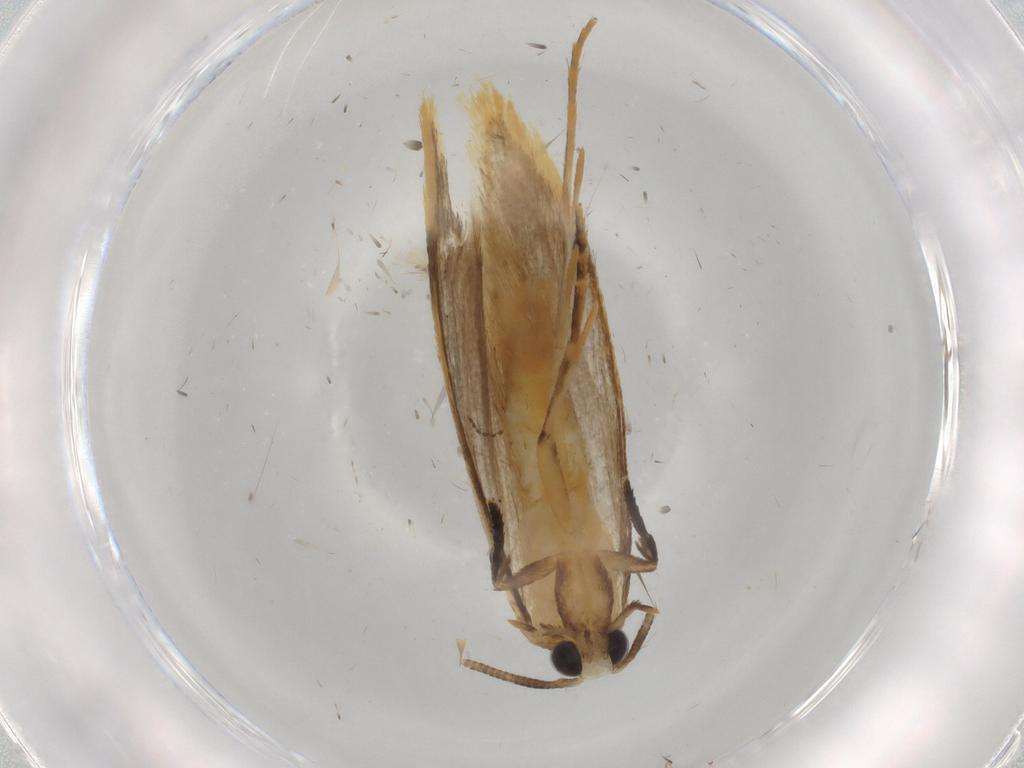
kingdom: Animalia
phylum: Arthropoda
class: Insecta
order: Lepidoptera
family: Tineidae
